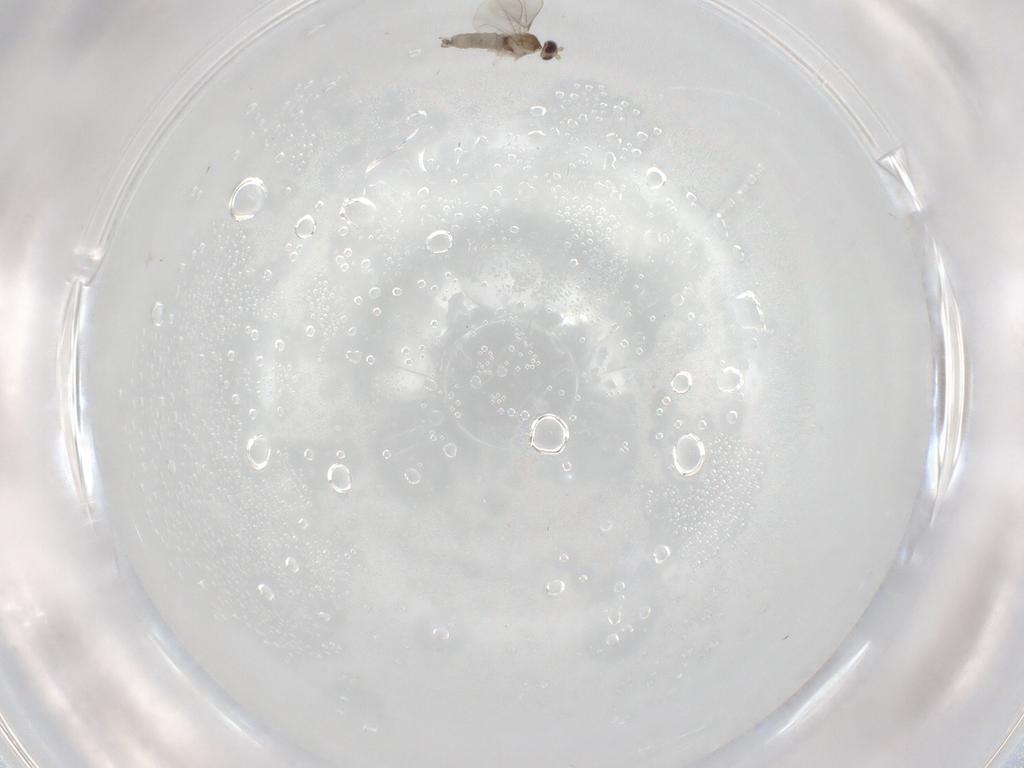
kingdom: Animalia
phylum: Arthropoda
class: Insecta
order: Diptera
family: Cecidomyiidae
